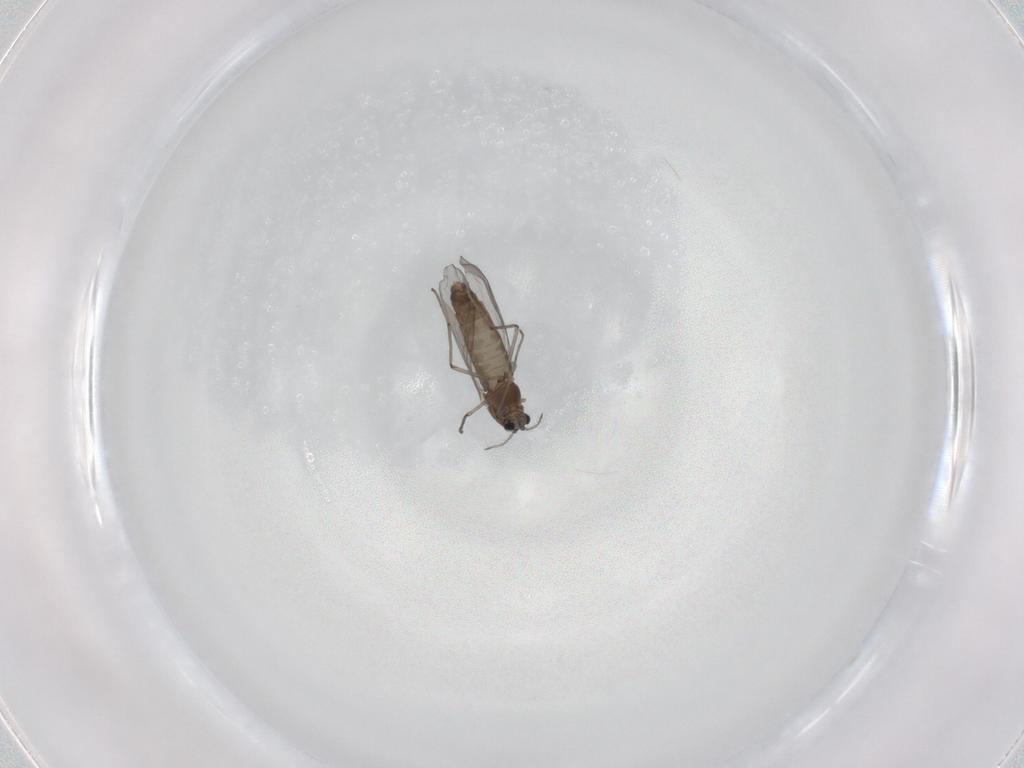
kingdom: Animalia
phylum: Arthropoda
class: Insecta
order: Diptera
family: Chironomidae
